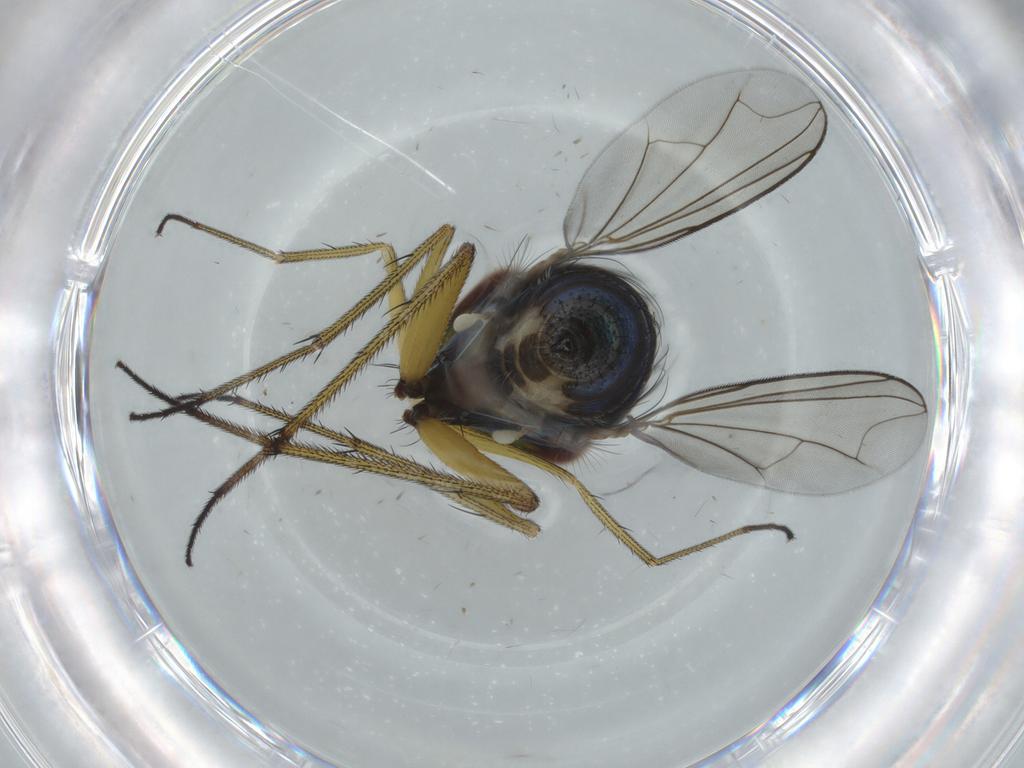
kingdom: Animalia
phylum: Arthropoda
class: Insecta
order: Diptera
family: Dolichopodidae
